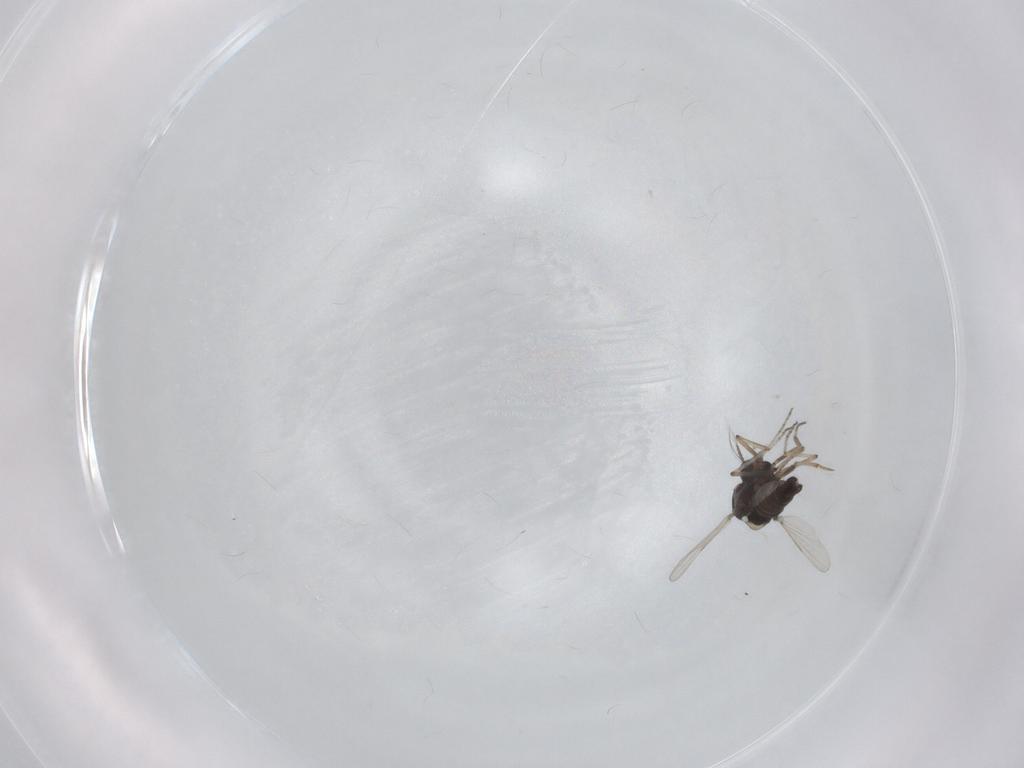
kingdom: Animalia
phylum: Arthropoda
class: Insecta
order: Diptera
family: Ceratopogonidae
